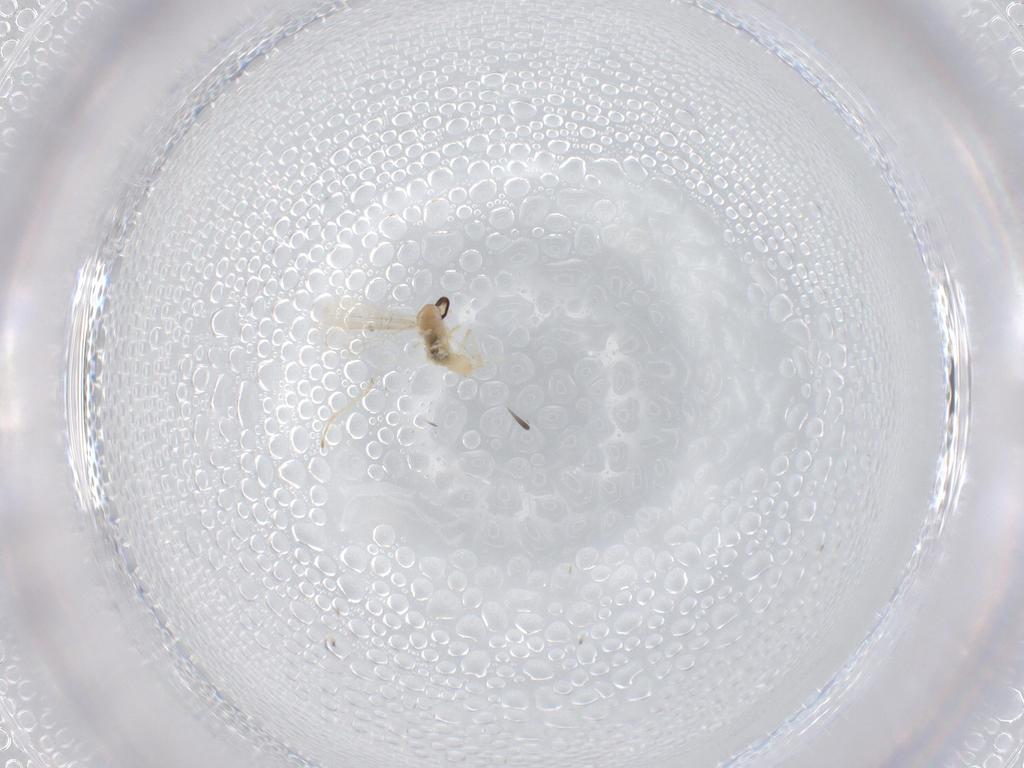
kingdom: Animalia
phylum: Arthropoda
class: Insecta
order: Diptera
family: Cecidomyiidae
